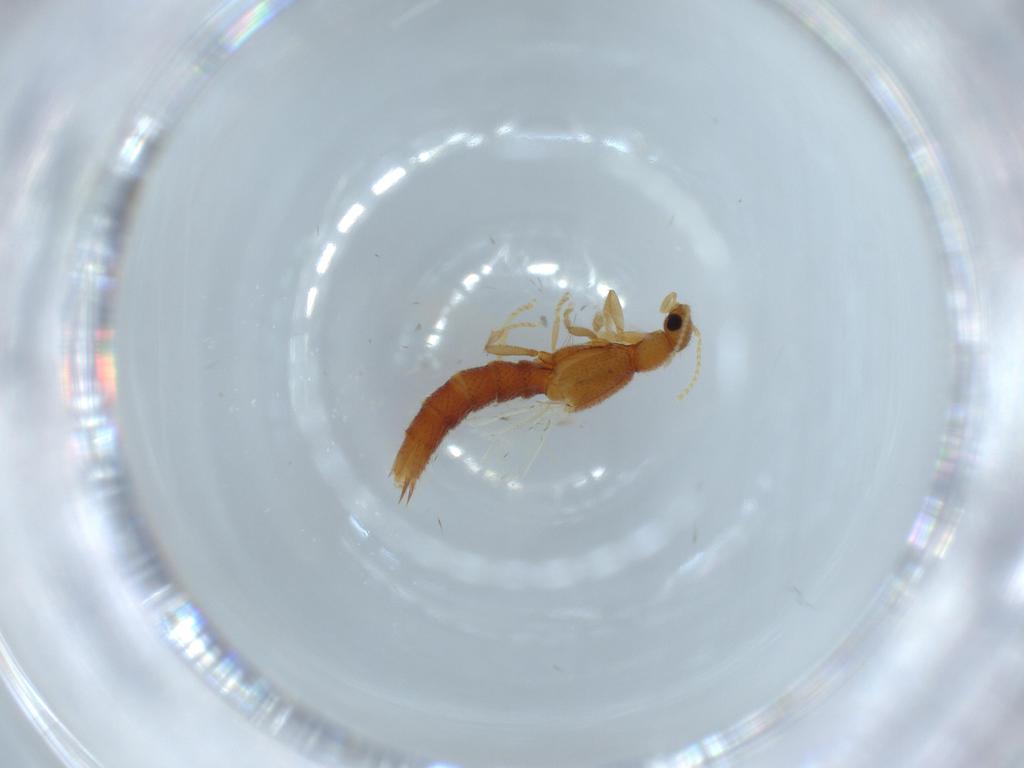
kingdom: Animalia
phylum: Arthropoda
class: Insecta
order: Coleoptera
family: Staphylinidae
